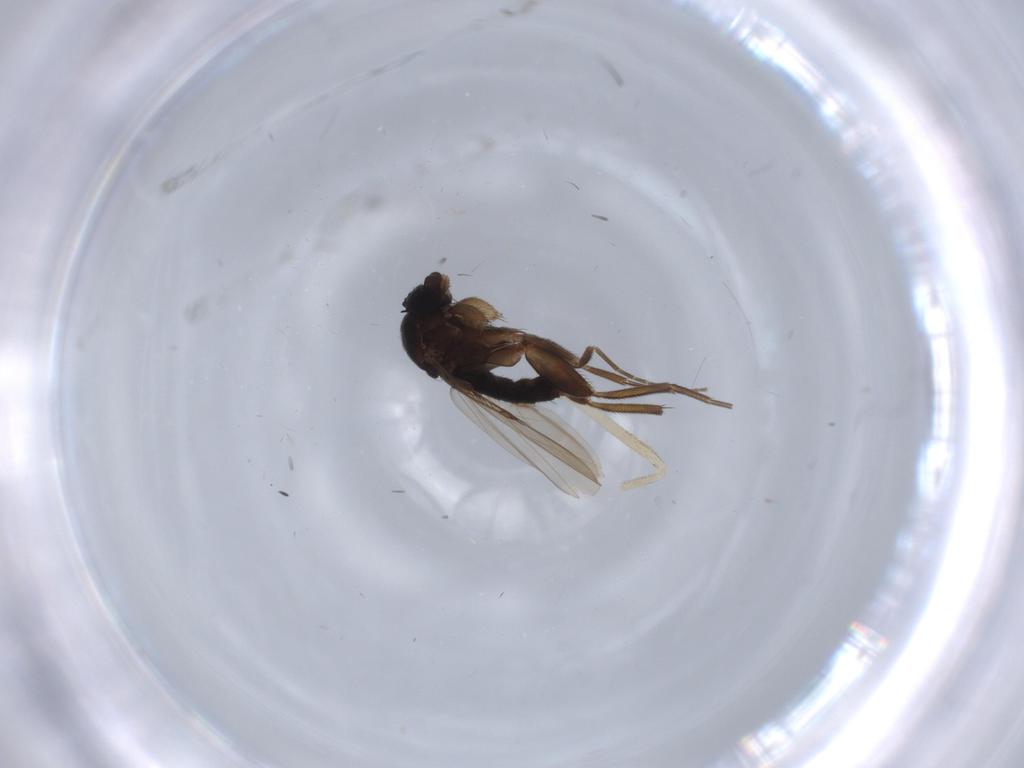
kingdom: Animalia
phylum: Arthropoda
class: Insecta
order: Diptera
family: Phoridae
